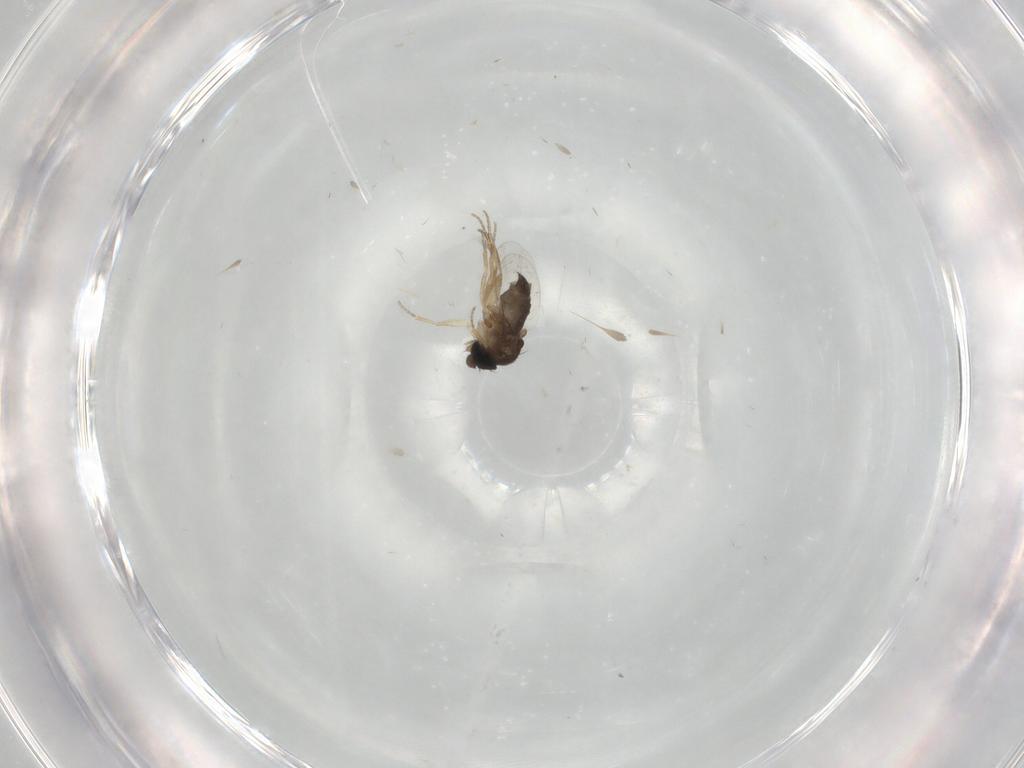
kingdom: Animalia
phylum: Arthropoda
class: Insecta
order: Diptera
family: Phoridae
